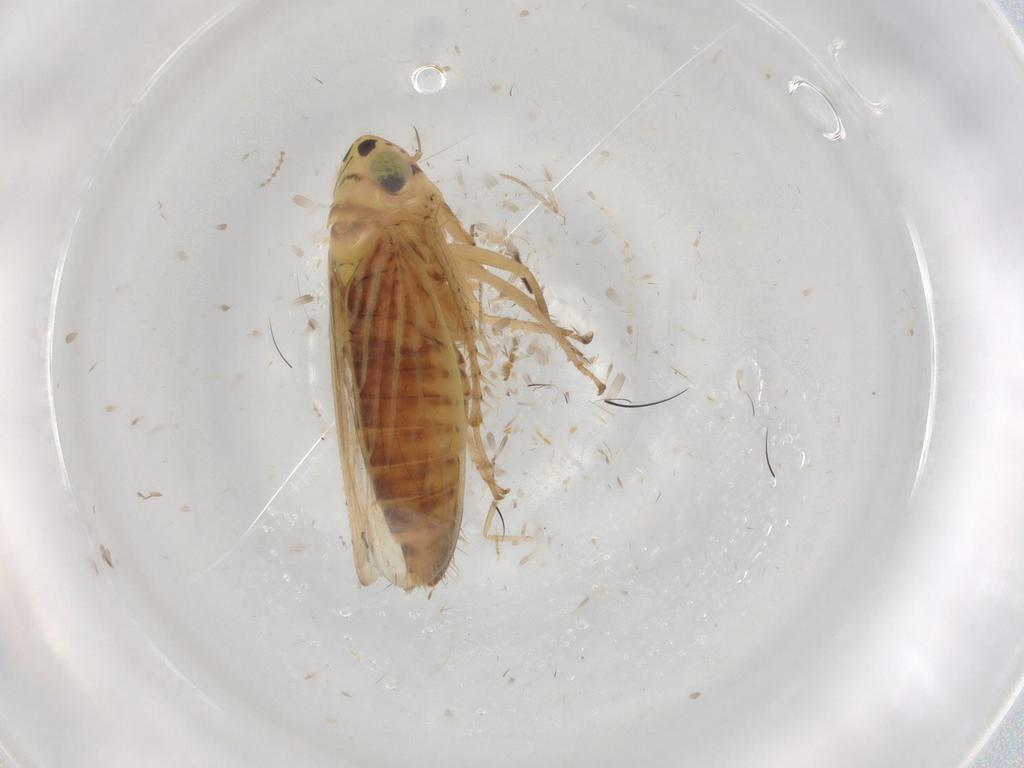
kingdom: Animalia
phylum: Arthropoda
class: Insecta
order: Hemiptera
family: Cicadellidae
